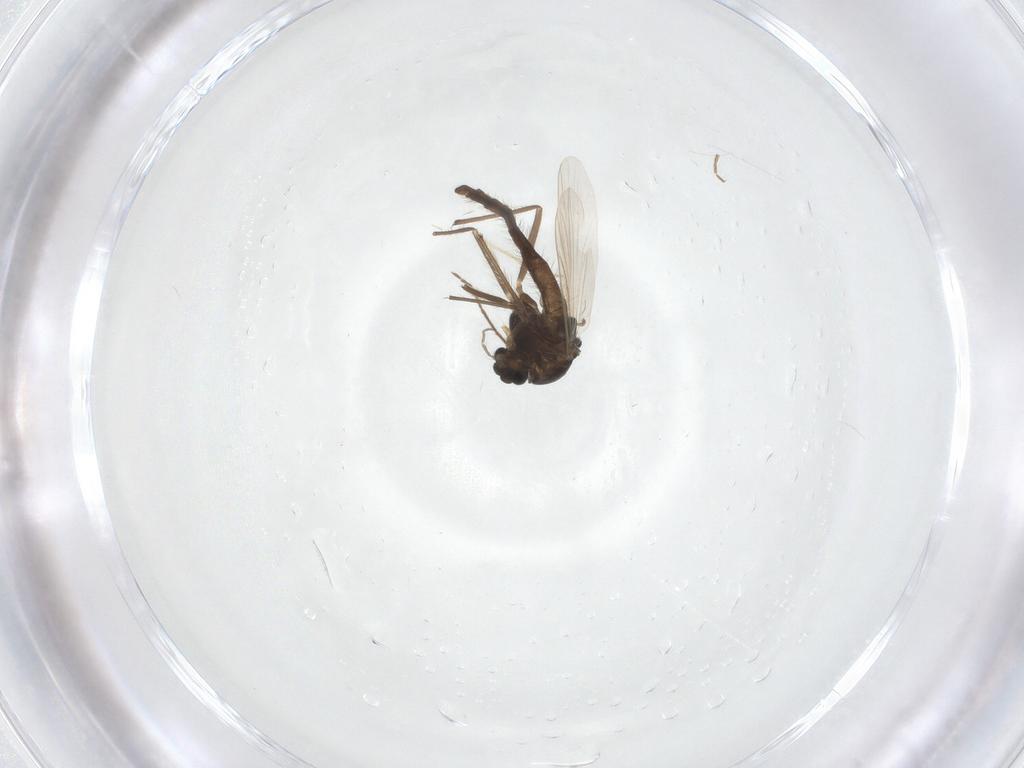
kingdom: Animalia
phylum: Arthropoda
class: Insecta
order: Diptera
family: Chironomidae
